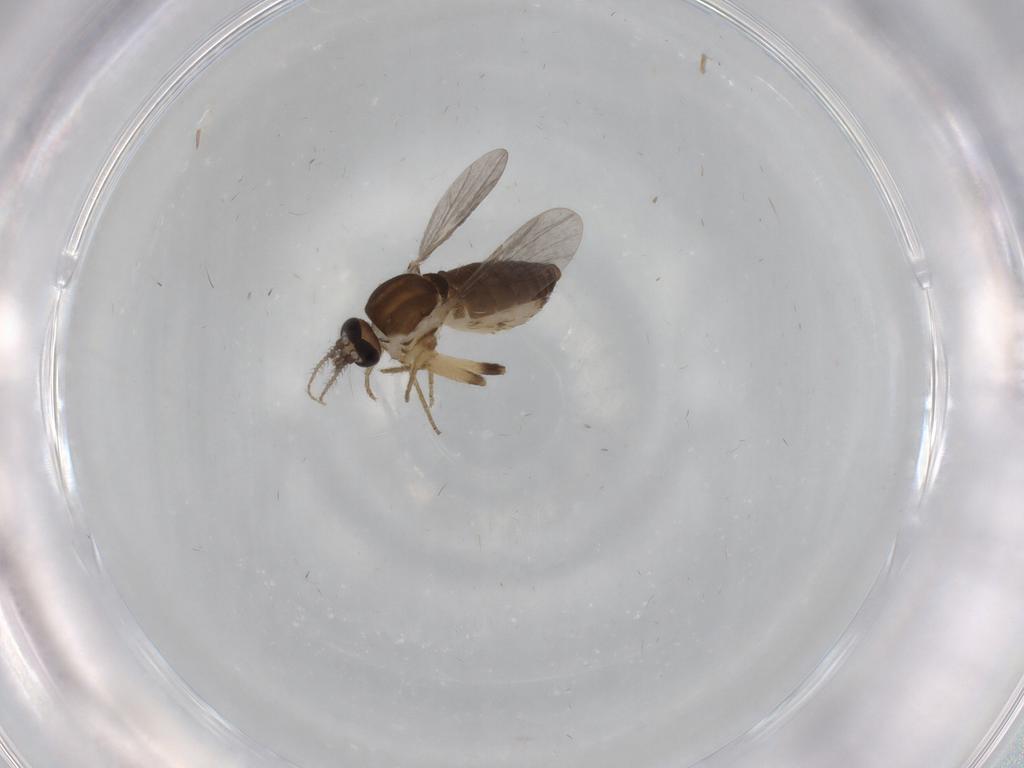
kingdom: Animalia
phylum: Arthropoda
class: Insecta
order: Diptera
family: Ceratopogonidae
